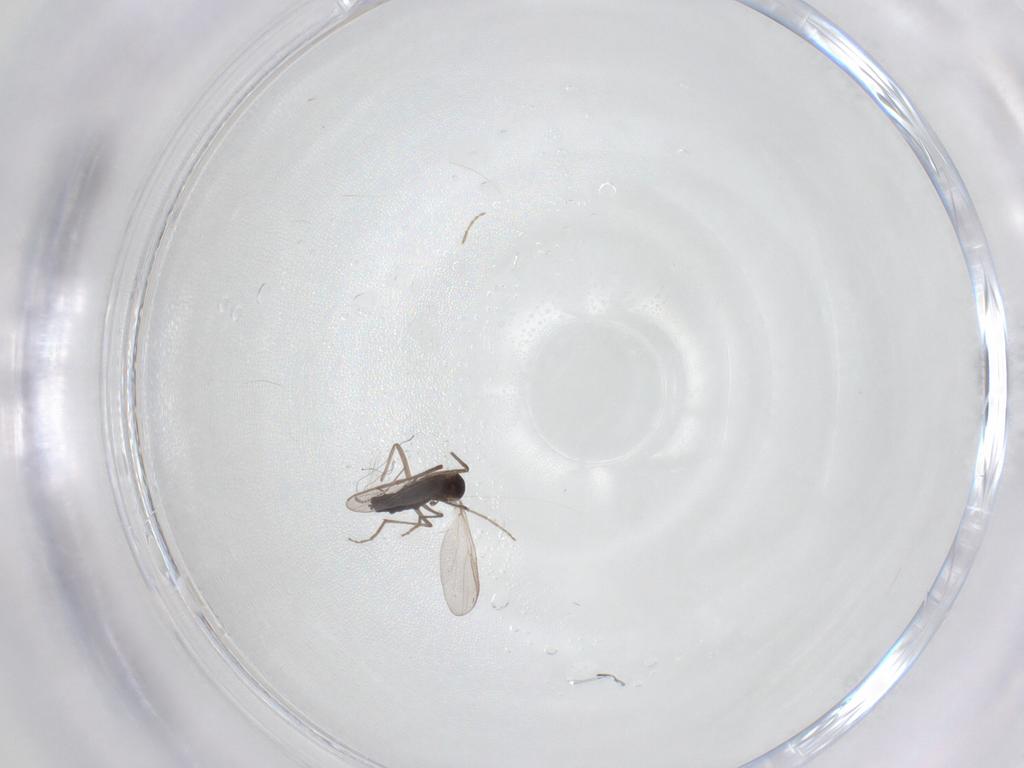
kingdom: Animalia
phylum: Arthropoda
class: Insecta
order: Diptera
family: Chironomidae
